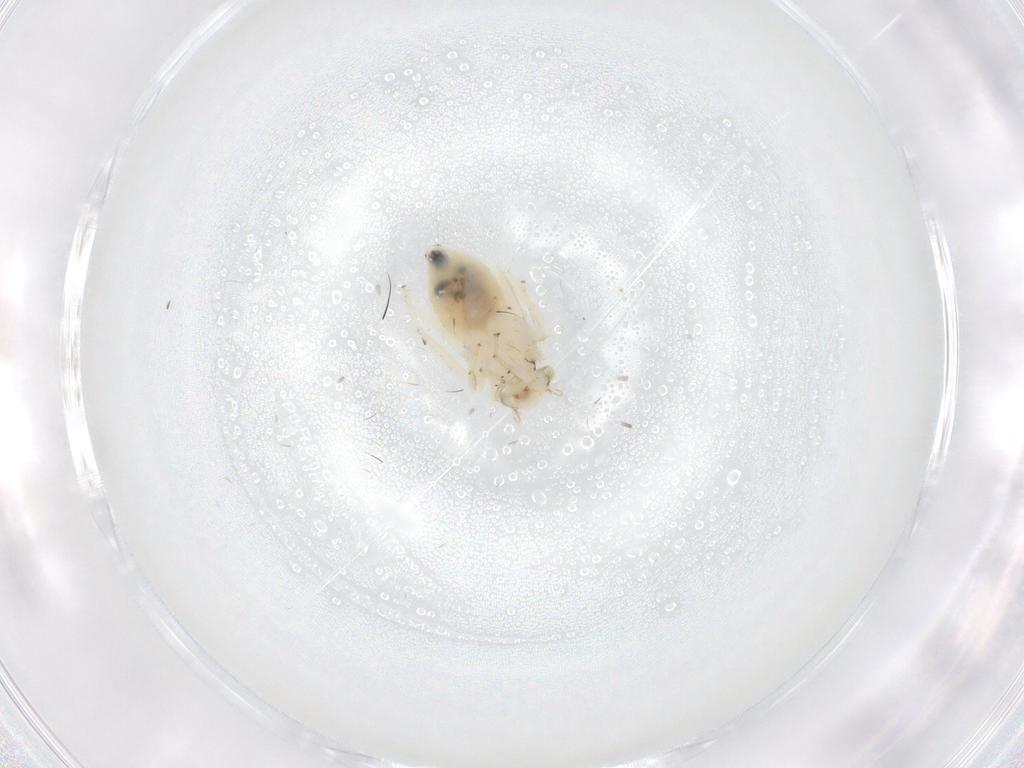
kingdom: Animalia
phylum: Arthropoda
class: Insecta
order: Psocodea
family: Lepidopsocidae
